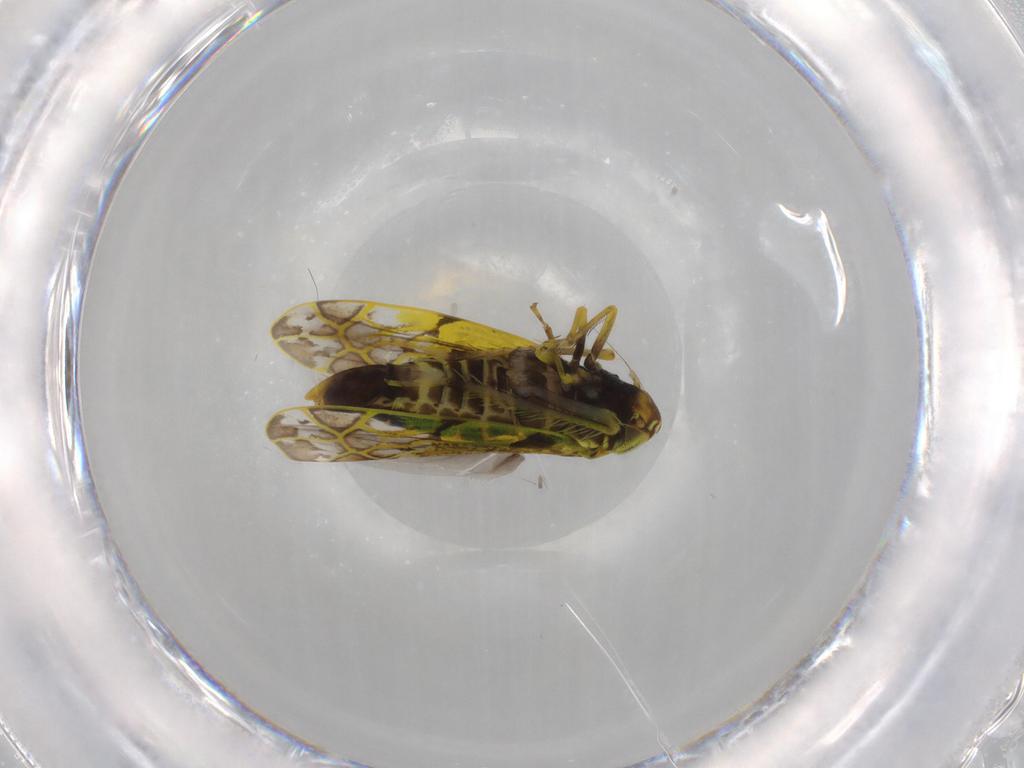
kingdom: Animalia
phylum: Arthropoda
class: Insecta
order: Hemiptera
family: Cicadellidae
